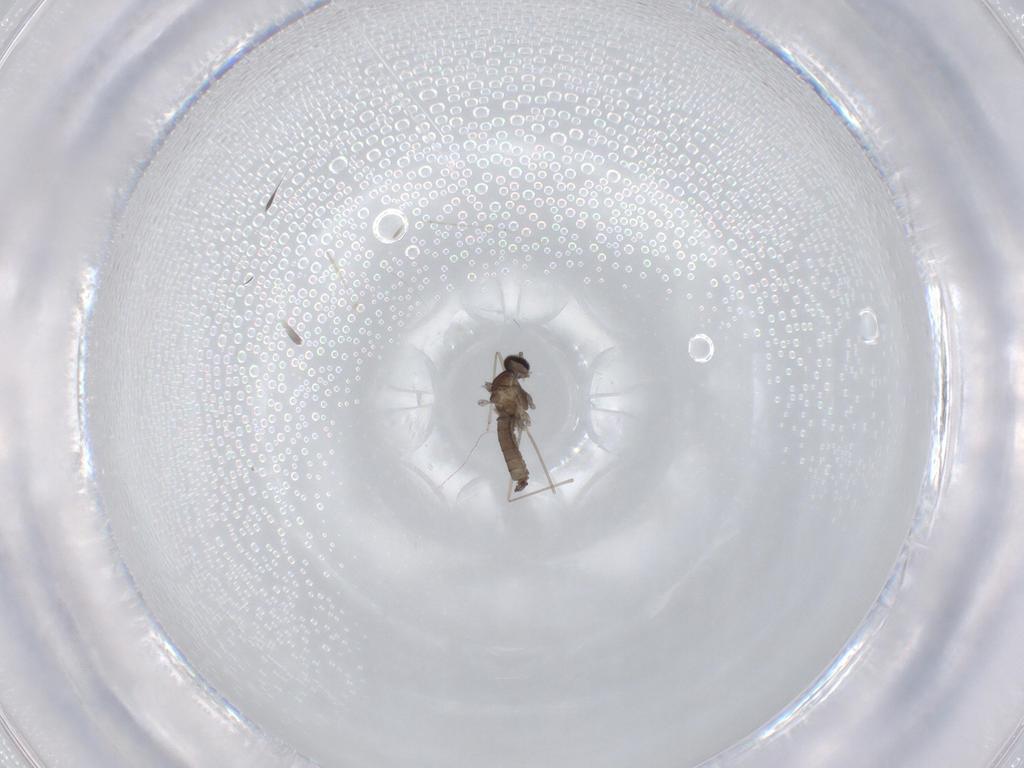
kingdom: Animalia
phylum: Arthropoda
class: Insecta
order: Diptera
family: Cecidomyiidae
